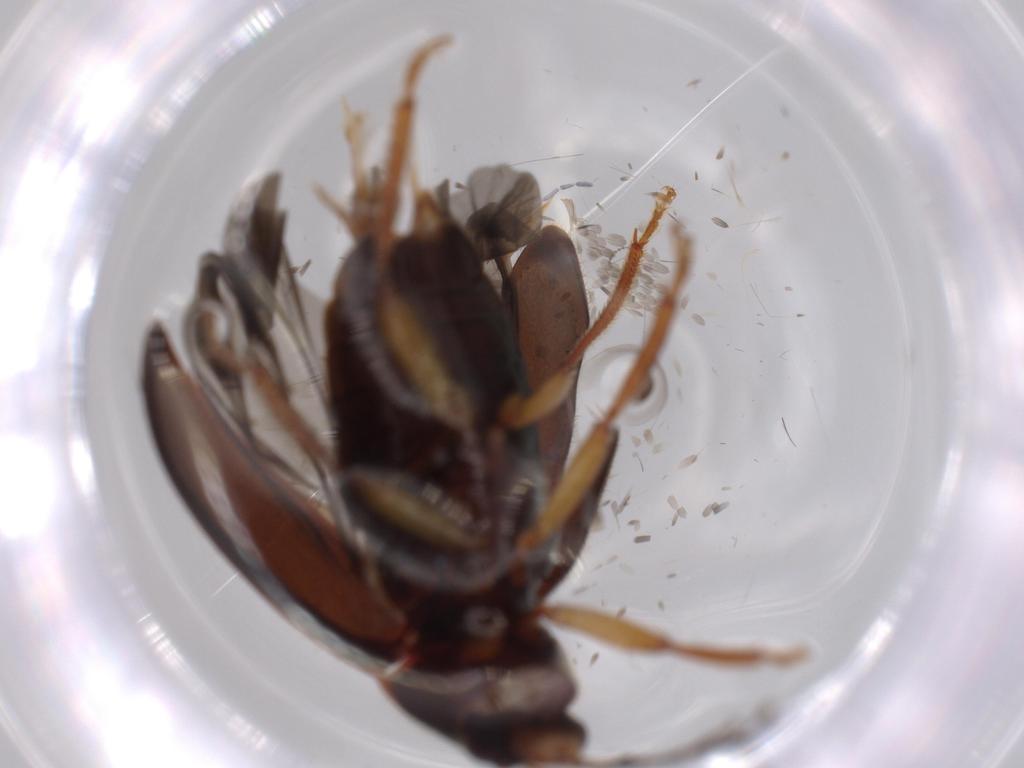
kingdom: Animalia
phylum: Arthropoda
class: Insecta
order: Coleoptera
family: Ptilodactylidae
